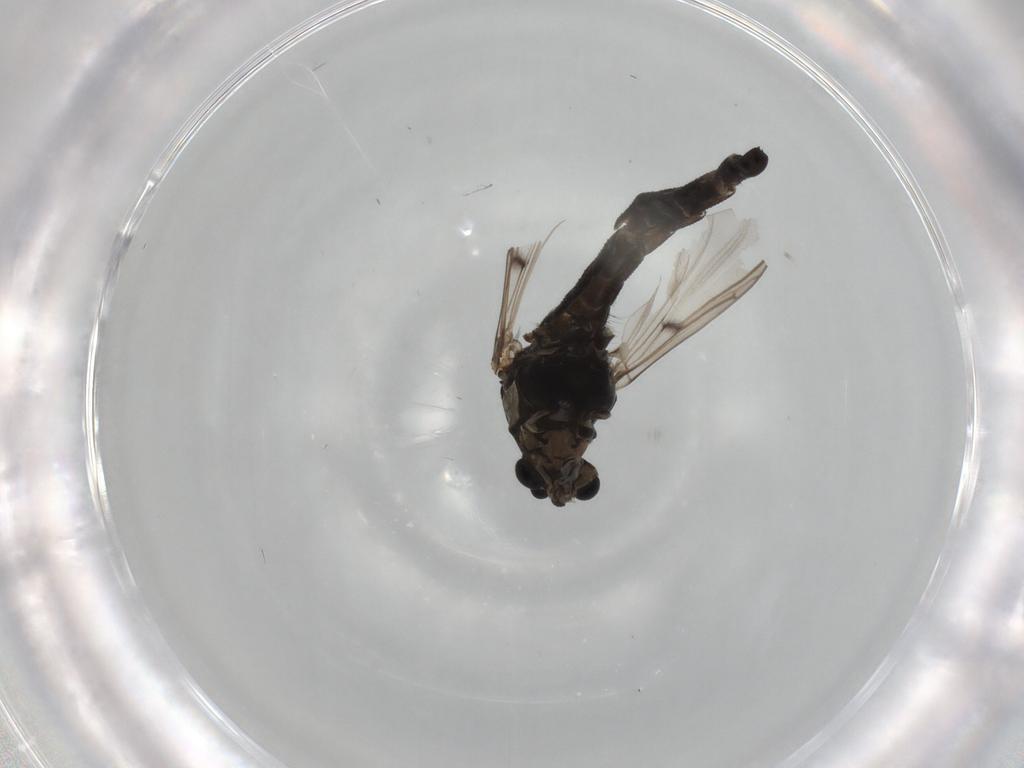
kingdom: Animalia
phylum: Arthropoda
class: Insecta
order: Diptera
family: Chironomidae
